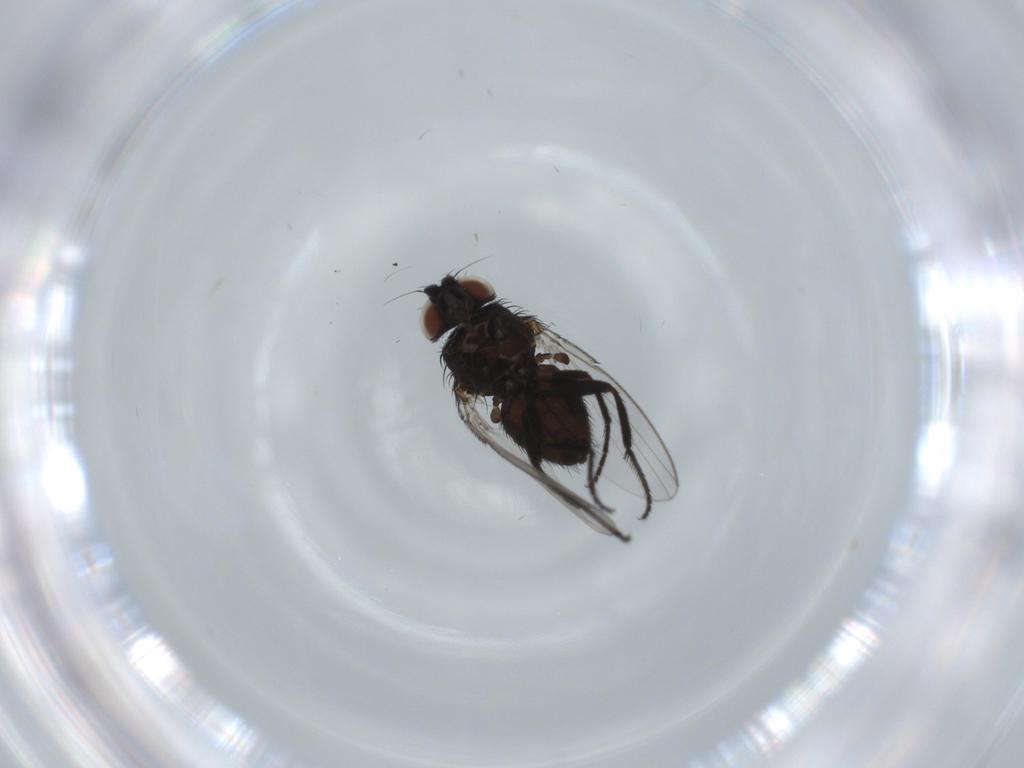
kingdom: Animalia
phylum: Arthropoda
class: Insecta
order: Diptera
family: Milichiidae
